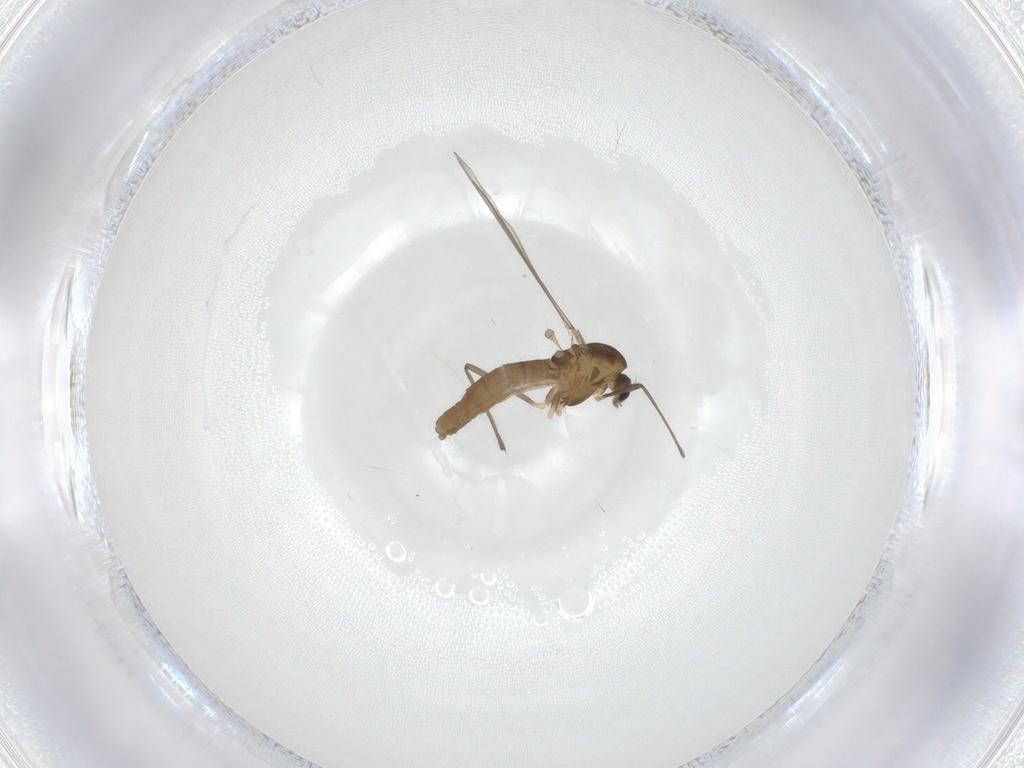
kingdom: Animalia
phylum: Arthropoda
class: Insecta
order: Diptera
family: Chironomidae
